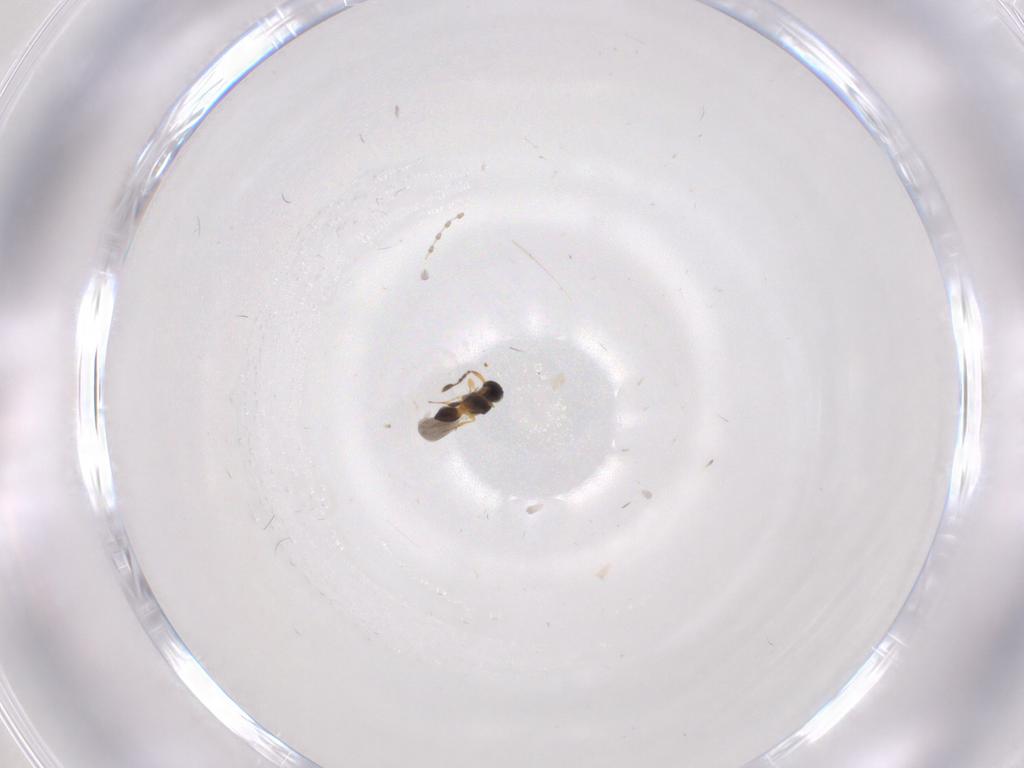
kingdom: Animalia
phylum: Arthropoda
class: Insecta
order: Hymenoptera
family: Platygastridae
